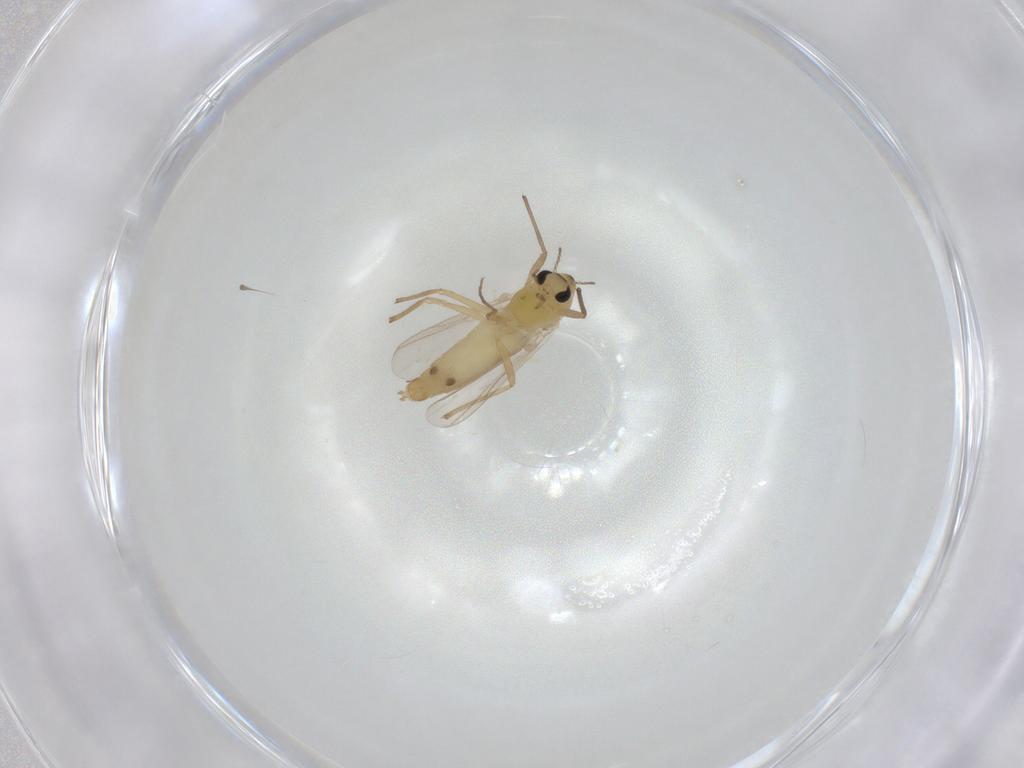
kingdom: Animalia
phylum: Arthropoda
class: Insecta
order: Diptera
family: Chironomidae
